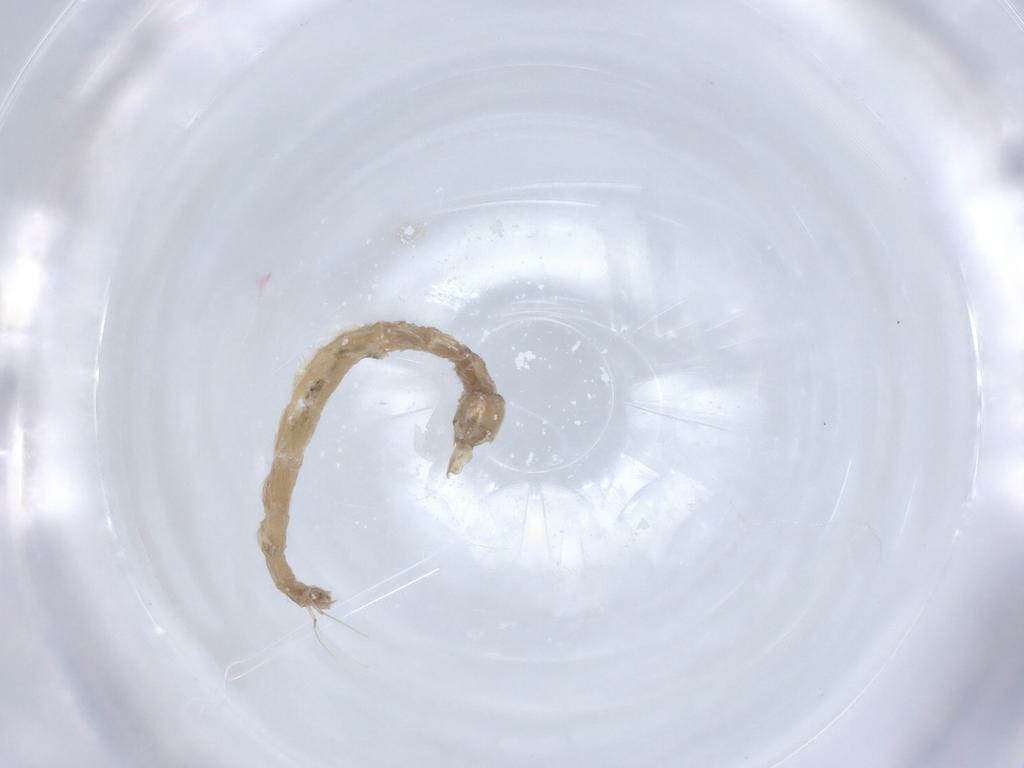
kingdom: Animalia
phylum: Arthropoda
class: Insecta
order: Diptera
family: Chironomidae
